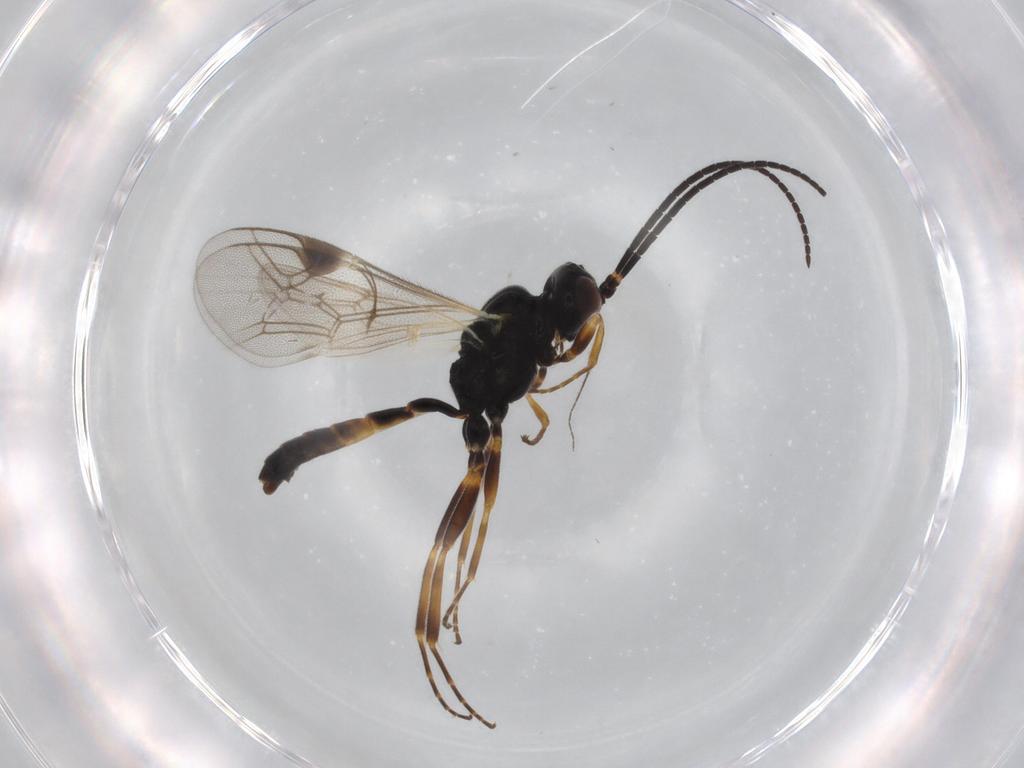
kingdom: Animalia
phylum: Arthropoda
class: Insecta
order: Hymenoptera
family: Ichneumonidae
